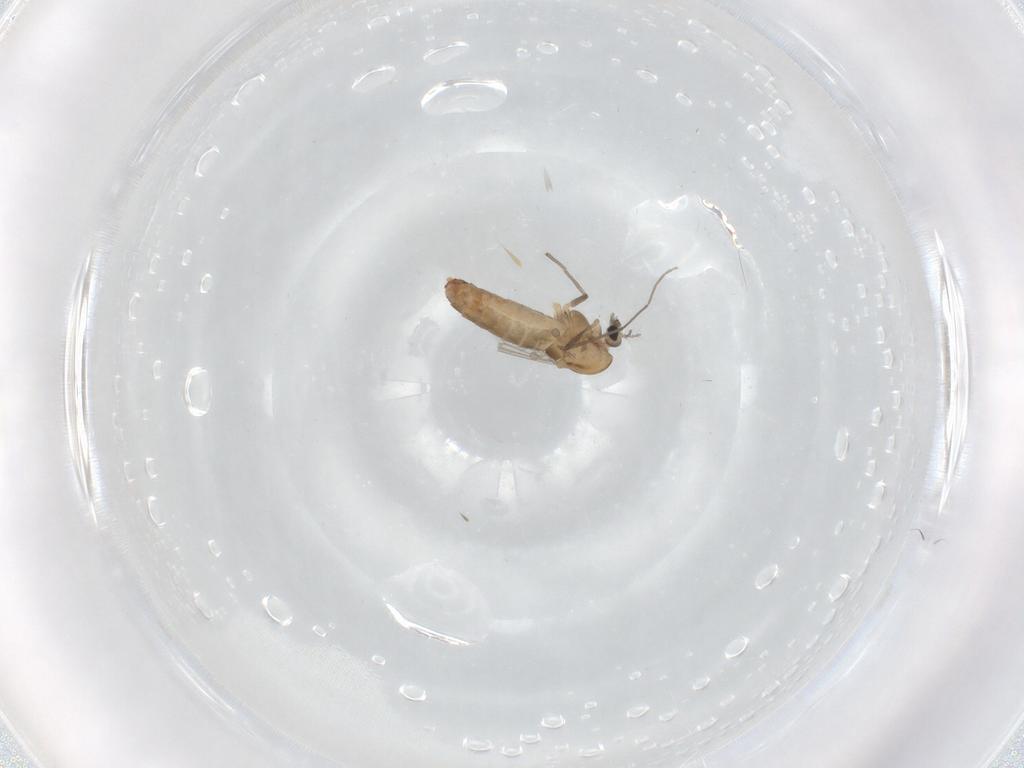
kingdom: Animalia
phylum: Arthropoda
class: Insecta
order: Diptera
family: Chironomidae
